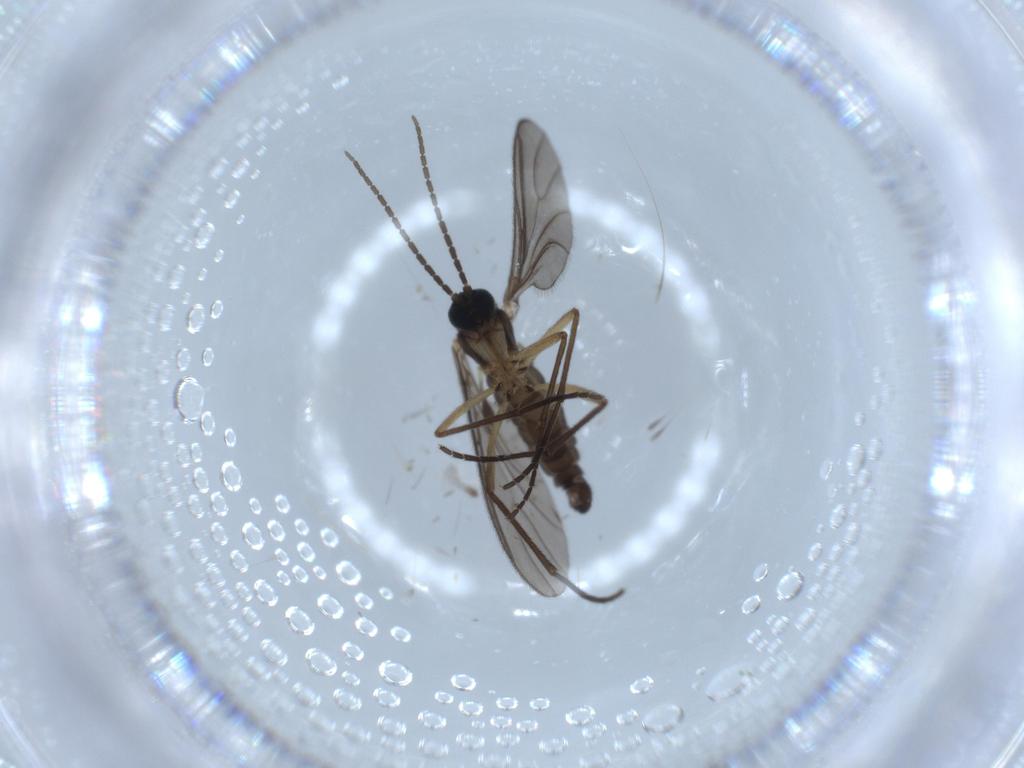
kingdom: Animalia
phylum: Arthropoda
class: Insecta
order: Diptera
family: Sciaridae
